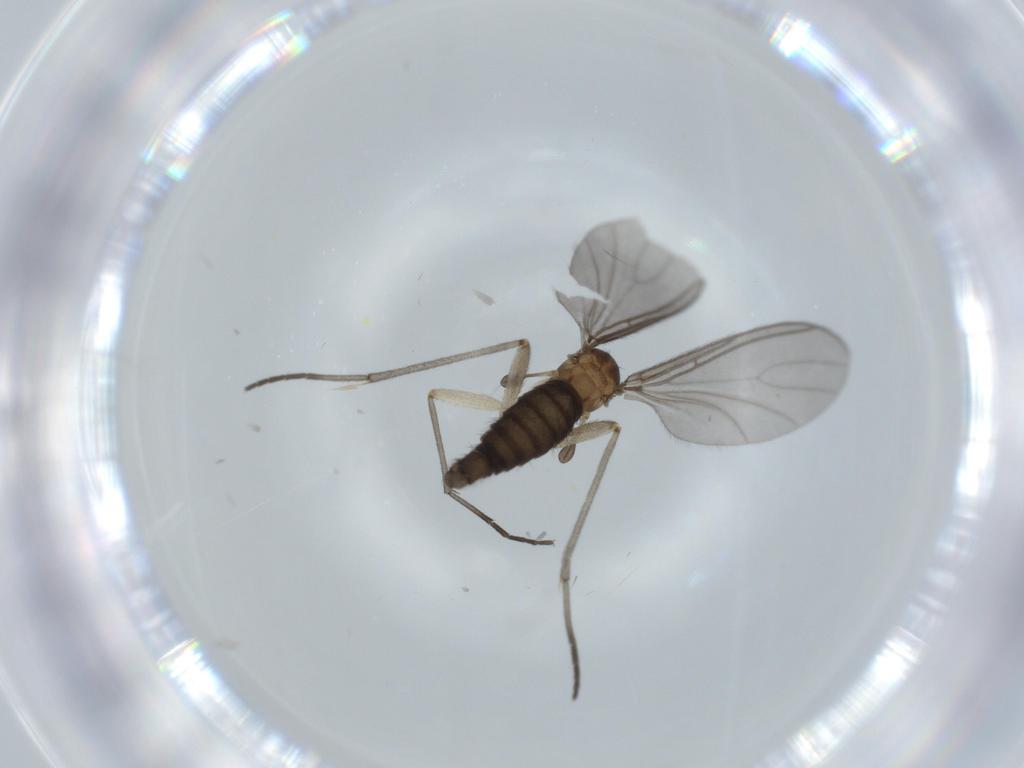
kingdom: Animalia
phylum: Arthropoda
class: Insecta
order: Diptera
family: Sciaridae
